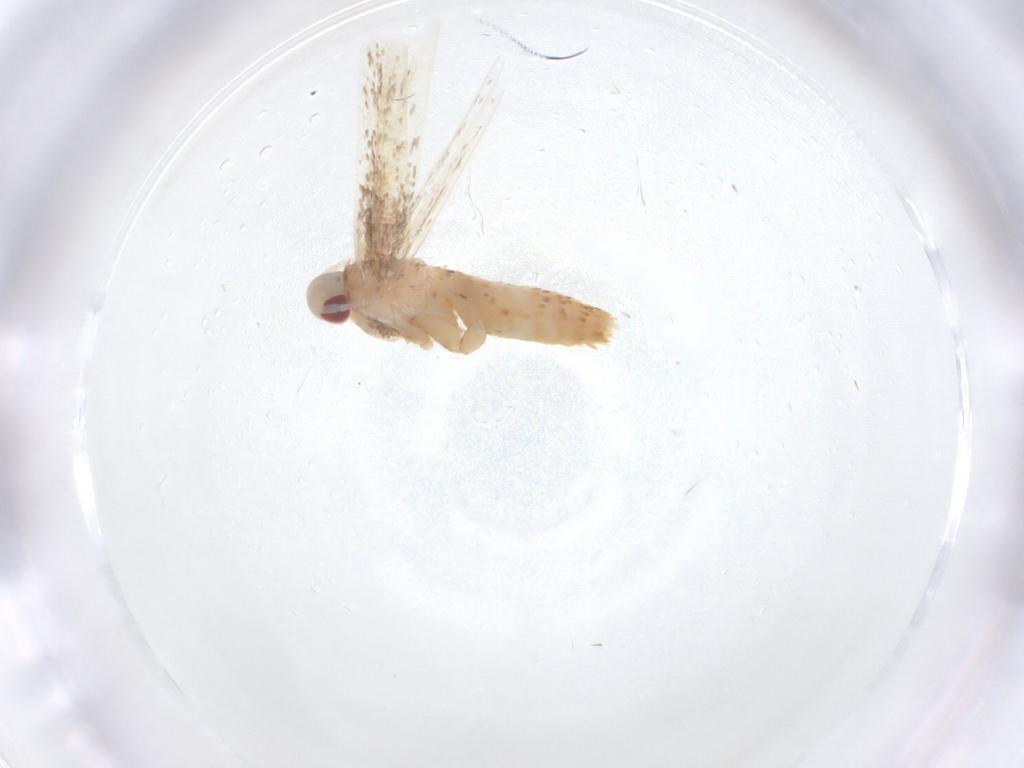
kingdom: Animalia
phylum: Arthropoda
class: Insecta
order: Lepidoptera
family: Cosmopterigidae
